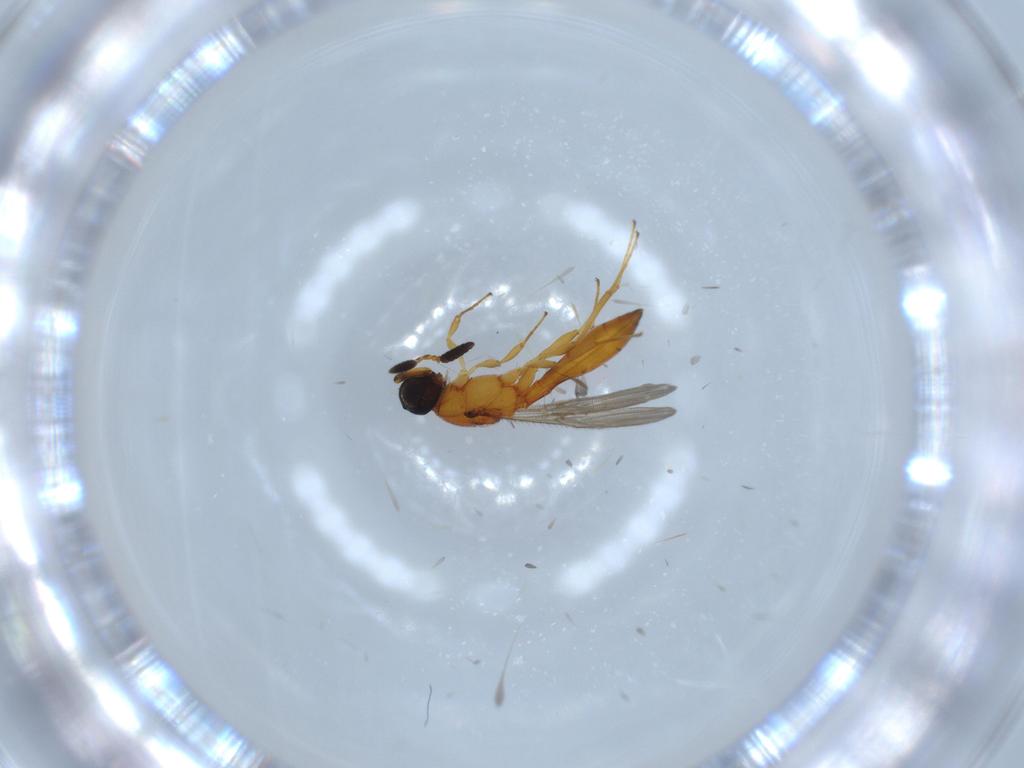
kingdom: Animalia
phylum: Arthropoda
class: Insecta
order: Hymenoptera
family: Scelionidae
